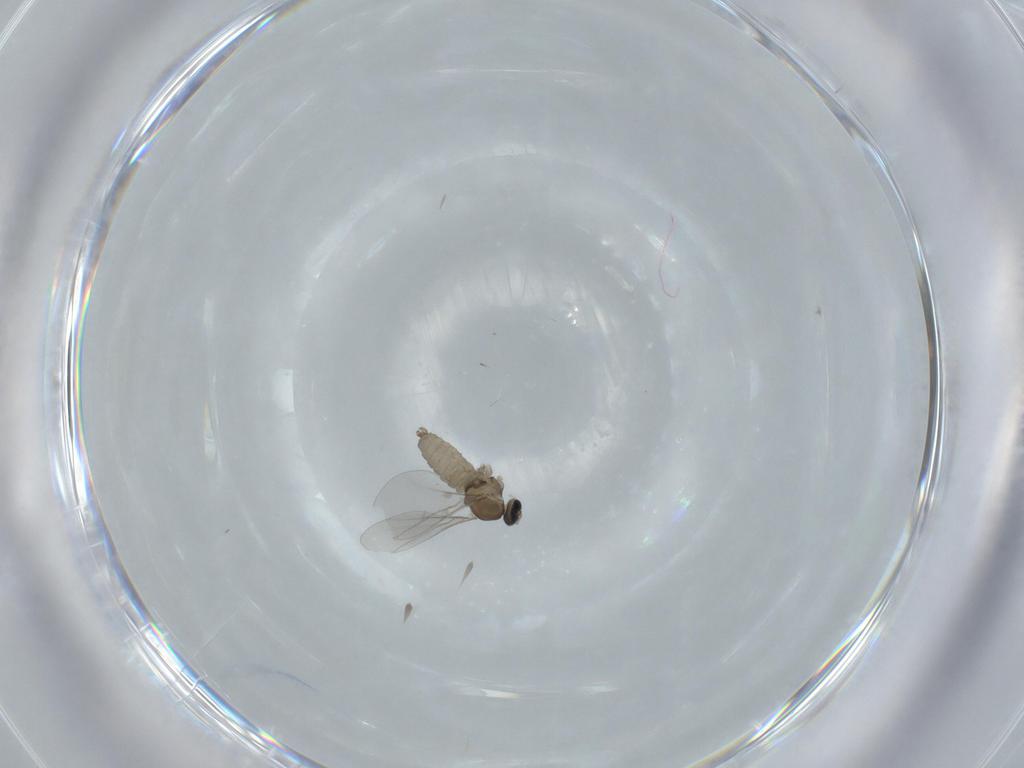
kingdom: Animalia
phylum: Arthropoda
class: Insecta
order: Diptera
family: Cecidomyiidae
